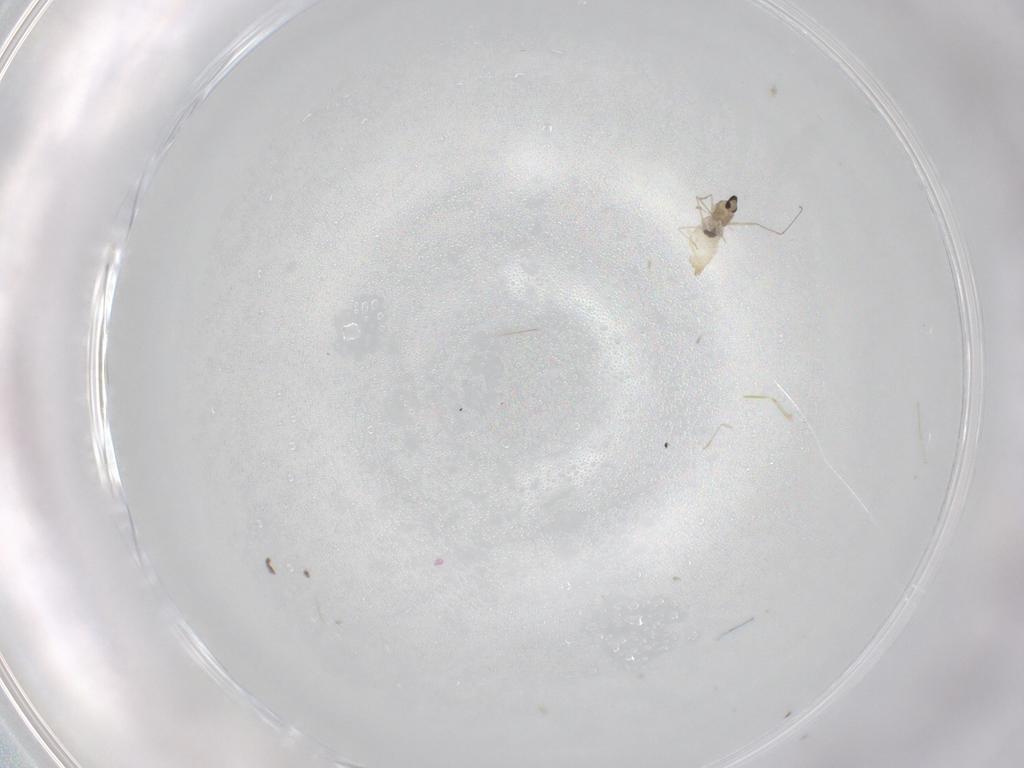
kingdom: Animalia
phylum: Arthropoda
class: Insecta
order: Diptera
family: Cecidomyiidae
